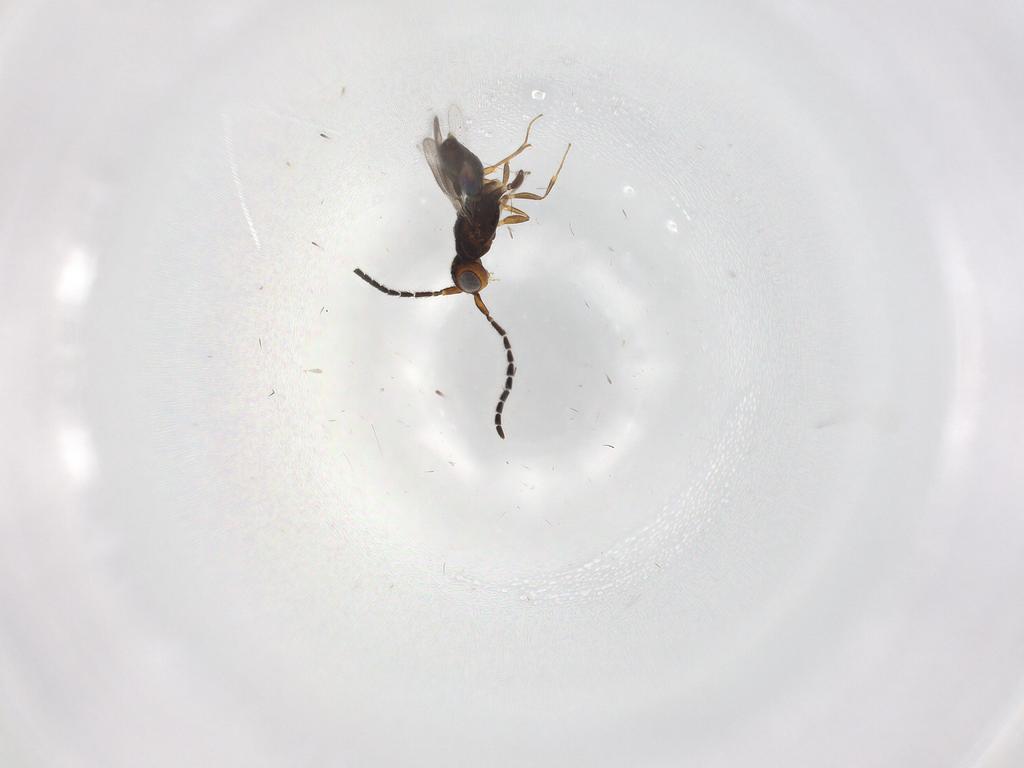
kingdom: Animalia
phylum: Arthropoda
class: Insecta
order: Hymenoptera
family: Megaspilidae
